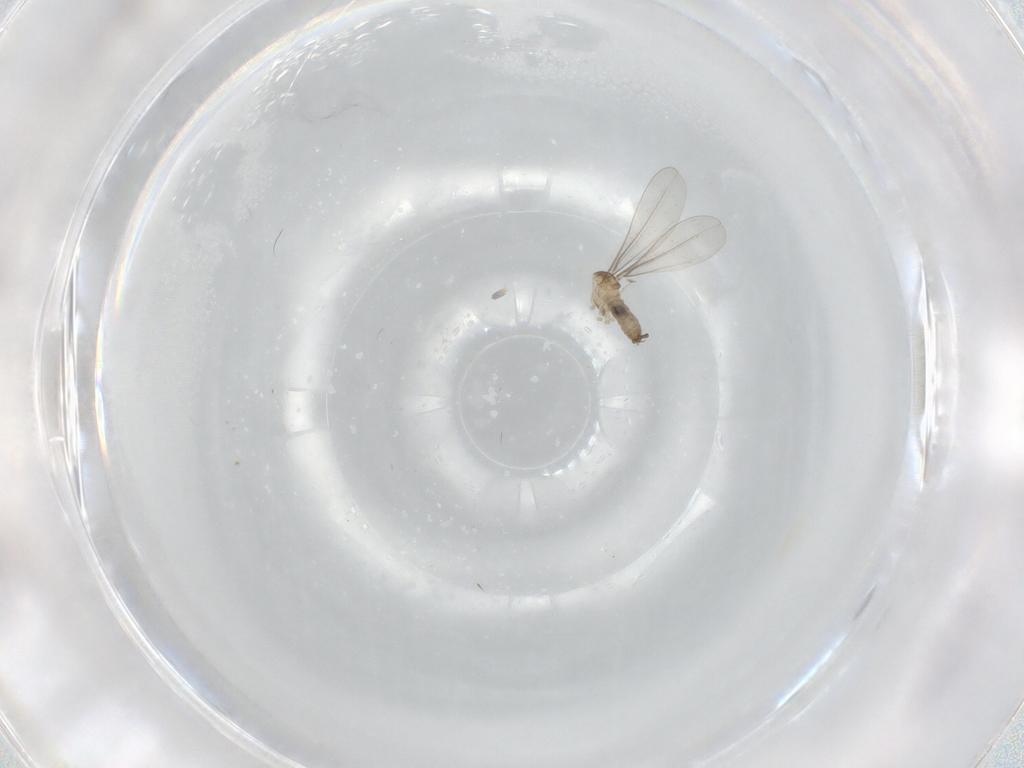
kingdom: Animalia
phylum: Arthropoda
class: Insecta
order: Diptera
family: Cecidomyiidae
